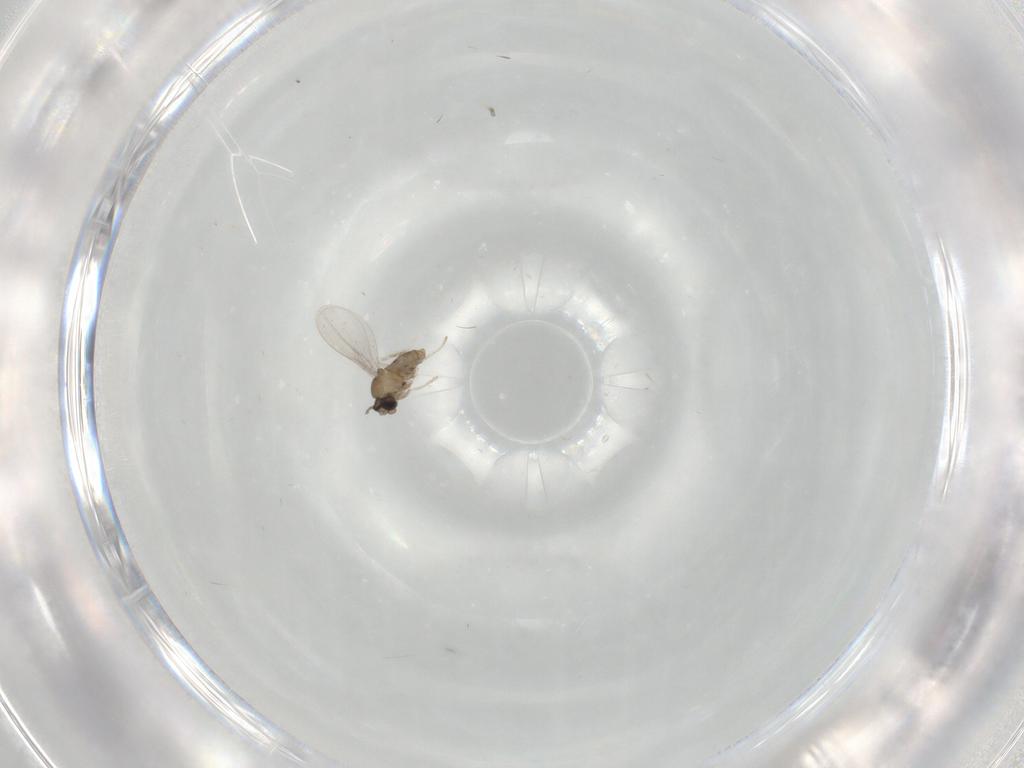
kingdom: Animalia
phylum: Arthropoda
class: Insecta
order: Diptera
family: Cecidomyiidae
